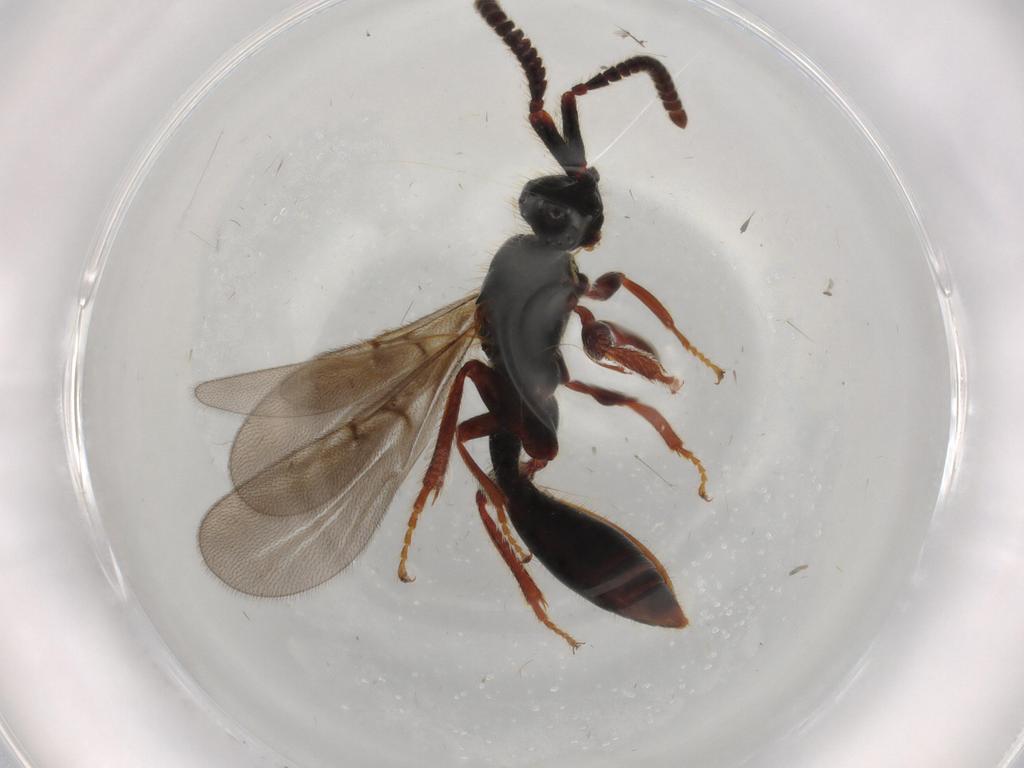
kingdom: Animalia
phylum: Arthropoda
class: Insecta
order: Hymenoptera
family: Diapriidae
